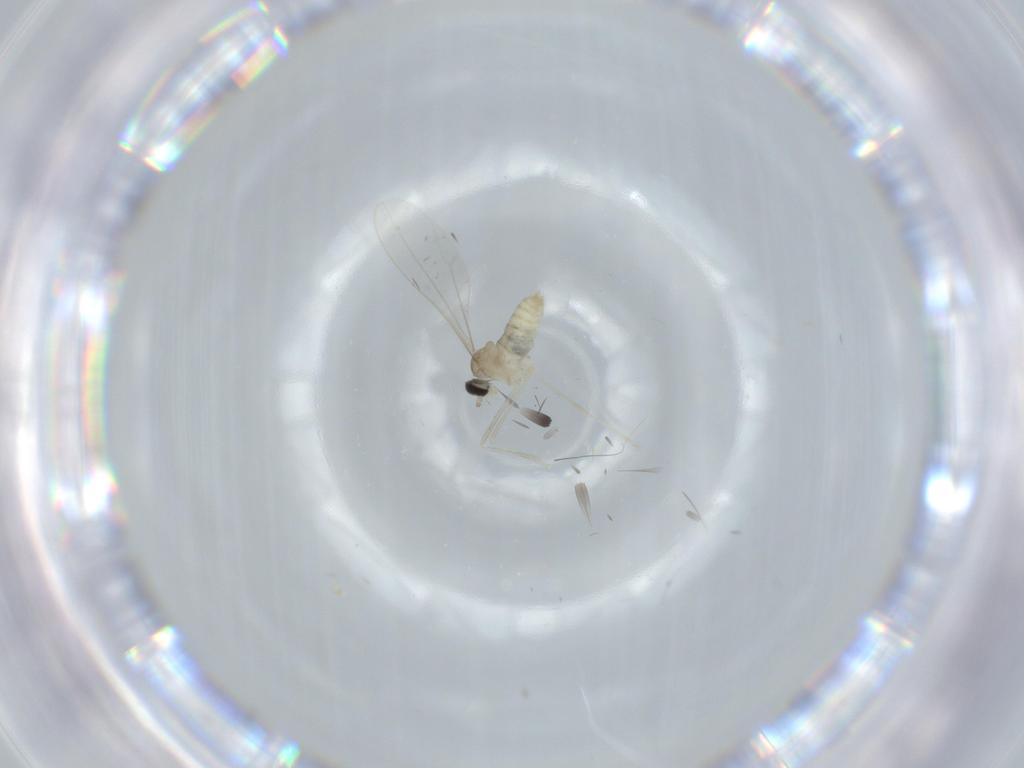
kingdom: Animalia
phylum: Arthropoda
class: Insecta
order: Diptera
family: Cecidomyiidae
